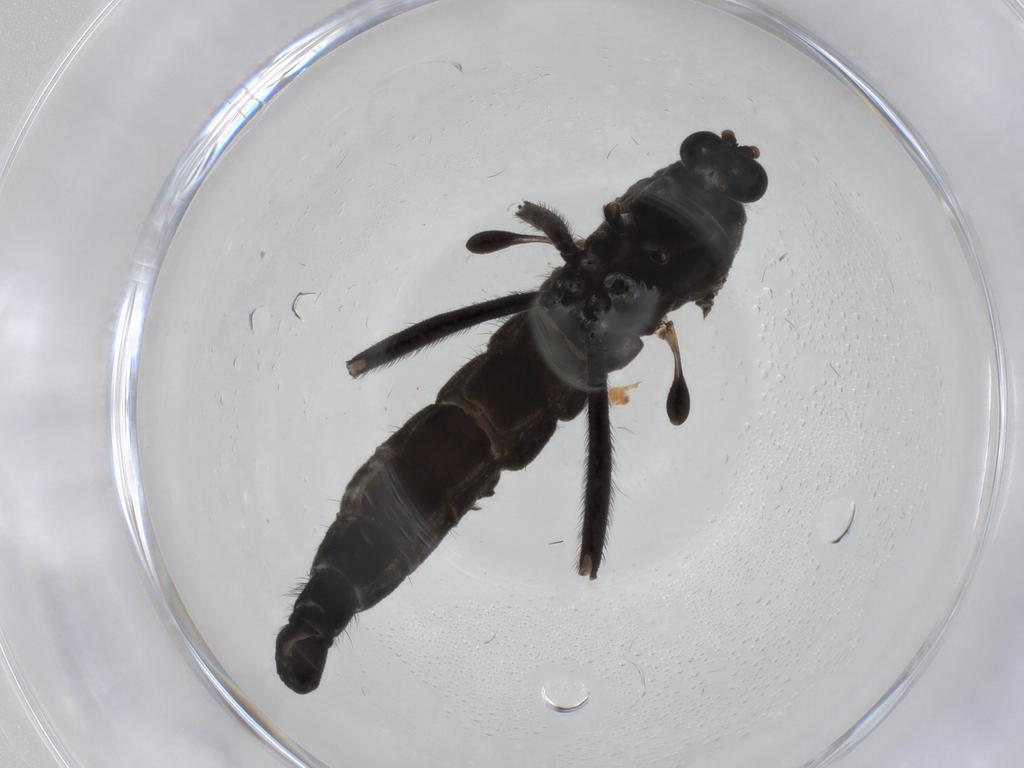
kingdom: Animalia
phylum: Arthropoda
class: Insecta
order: Diptera
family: Sciaridae
